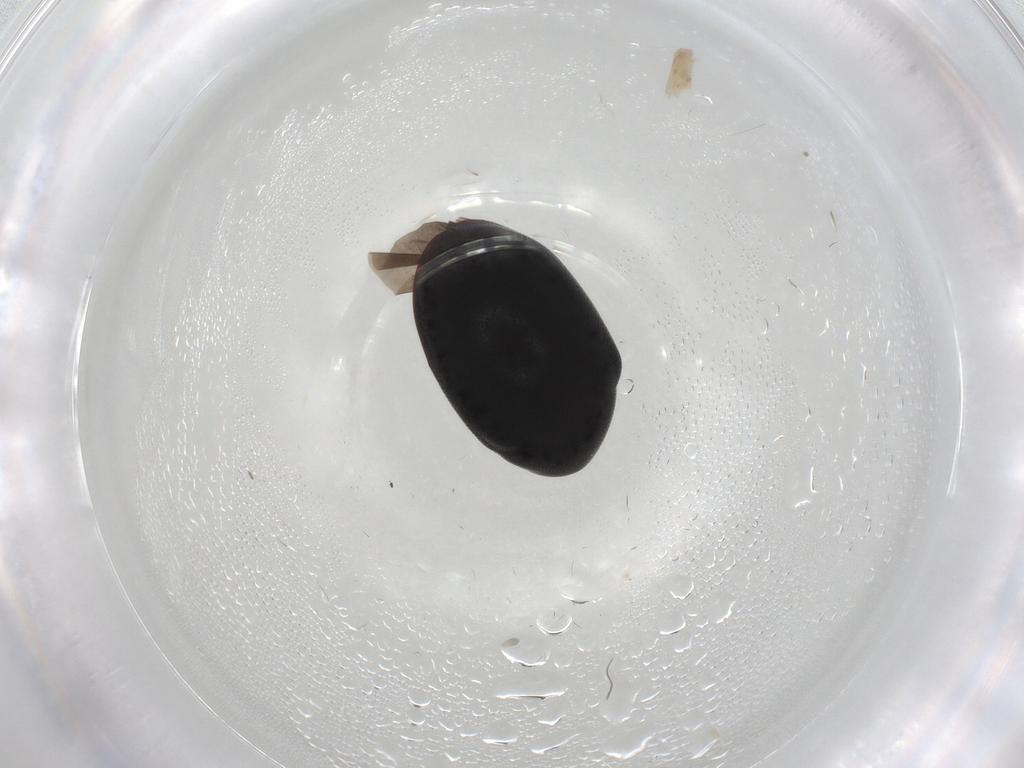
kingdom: Animalia
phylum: Arthropoda
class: Insecta
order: Coleoptera
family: Ptinidae
